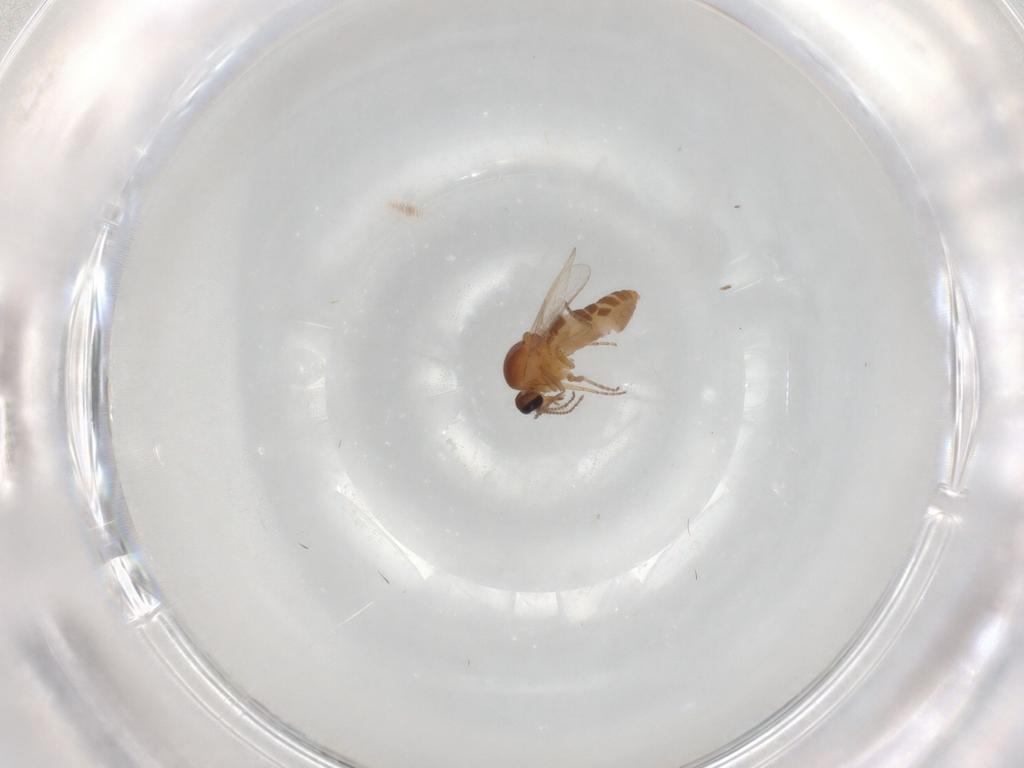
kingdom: Animalia
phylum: Arthropoda
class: Insecta
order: Diptera
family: Ceratopogonidae
